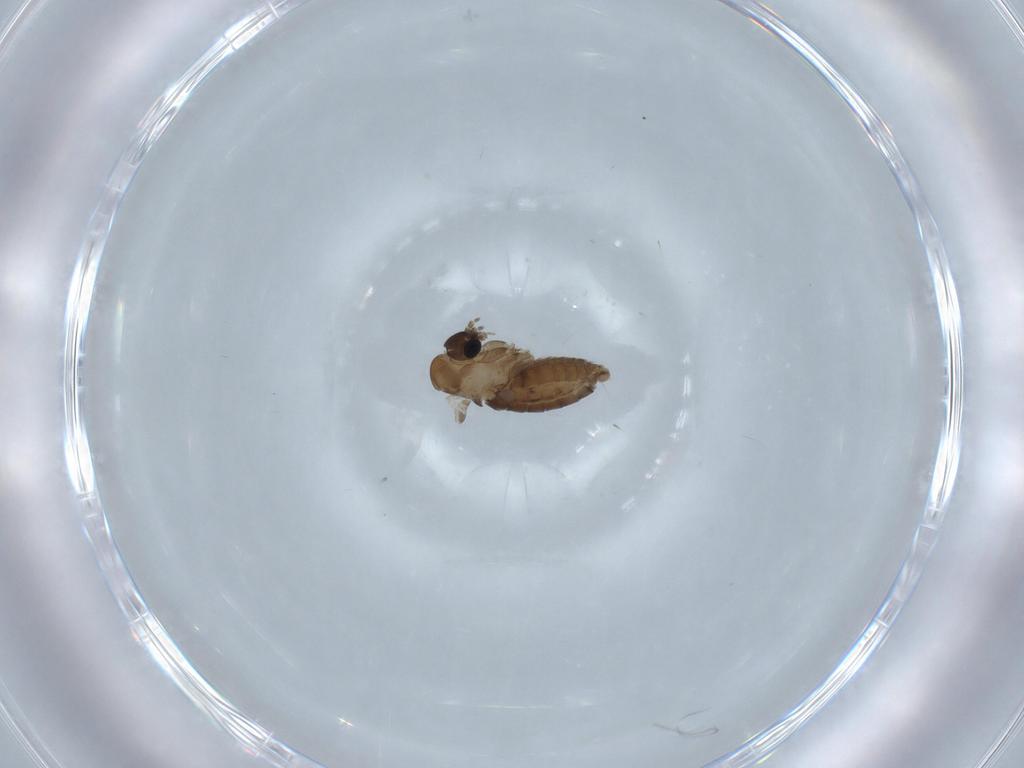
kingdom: Animalia
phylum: Arthropoda
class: Insecta
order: Diptera
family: Psychodidae
